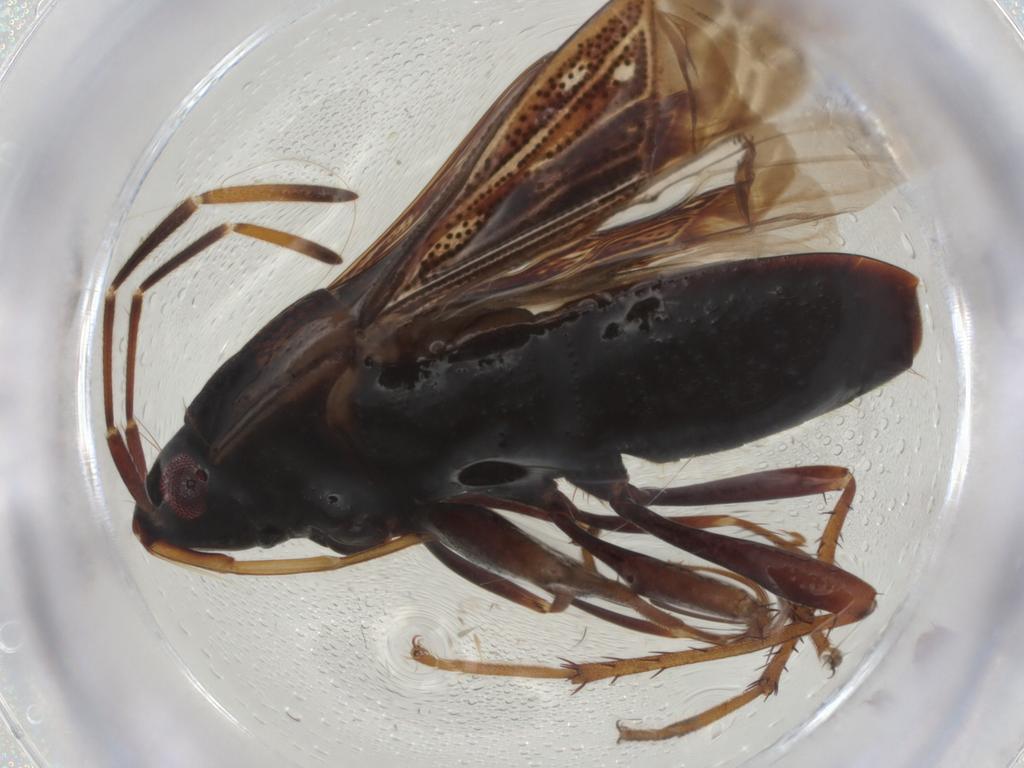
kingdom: Animalia
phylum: Arthropoda
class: Insecta
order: Hemiptera
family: Rhyparochromidae
